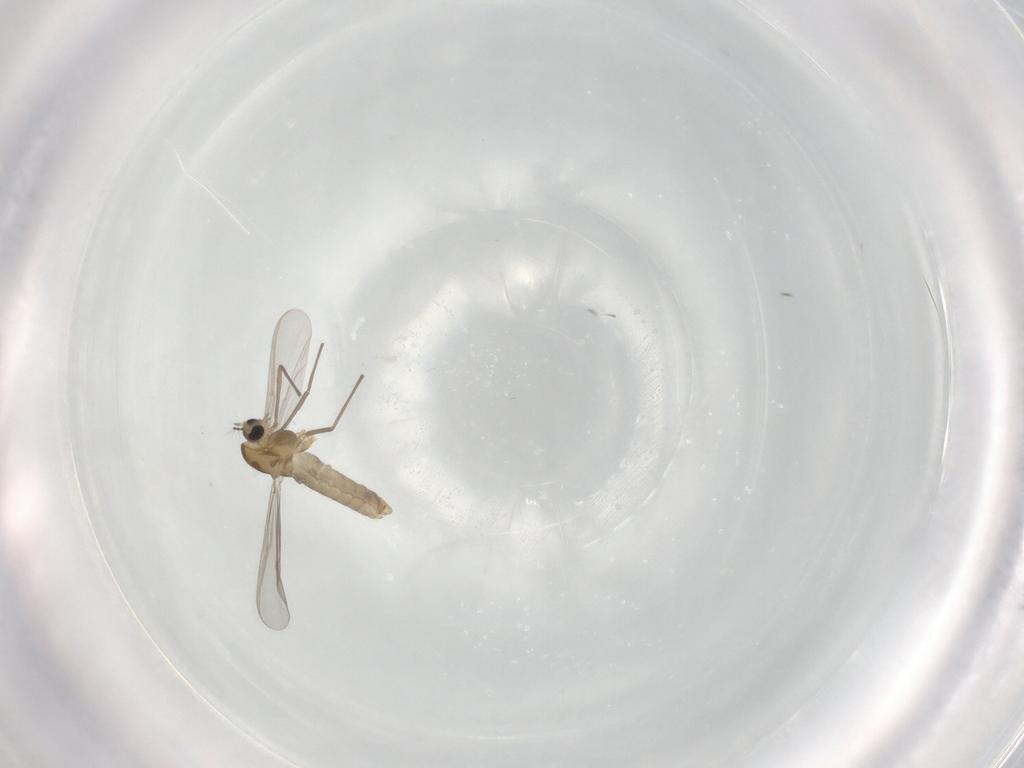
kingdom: Animalia
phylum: Arthropoda
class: Insecta
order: Diptera
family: Chironomidae
